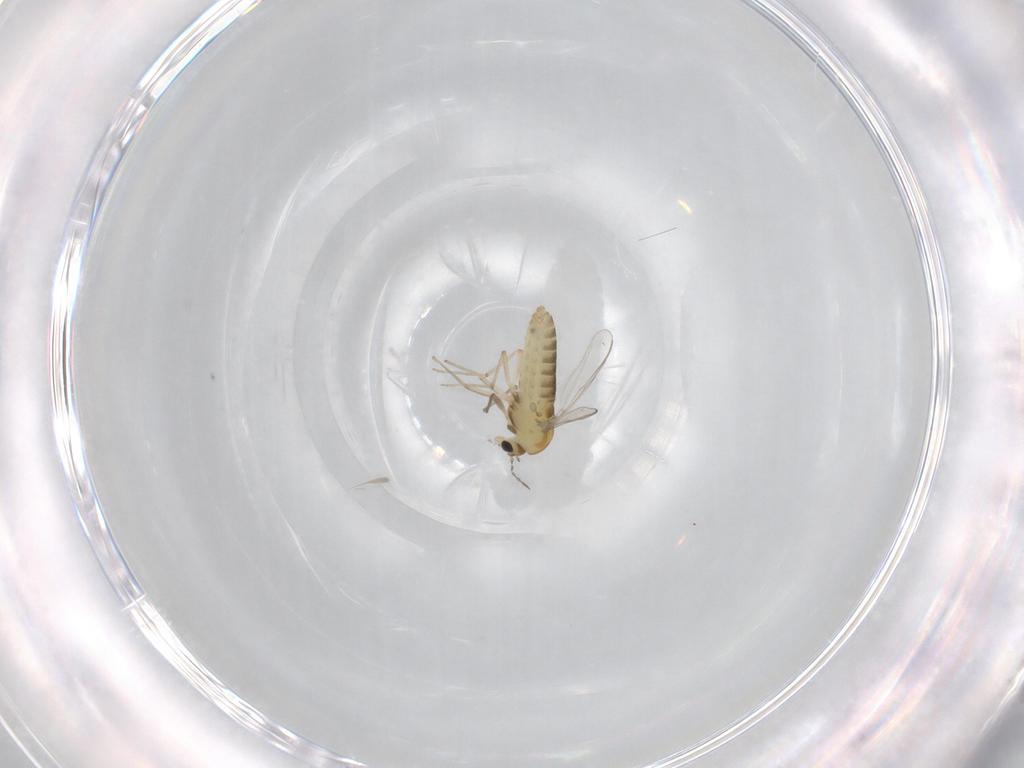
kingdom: Animalia
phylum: Arthropoda
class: Insecta
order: Diptera
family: Chironomidae
